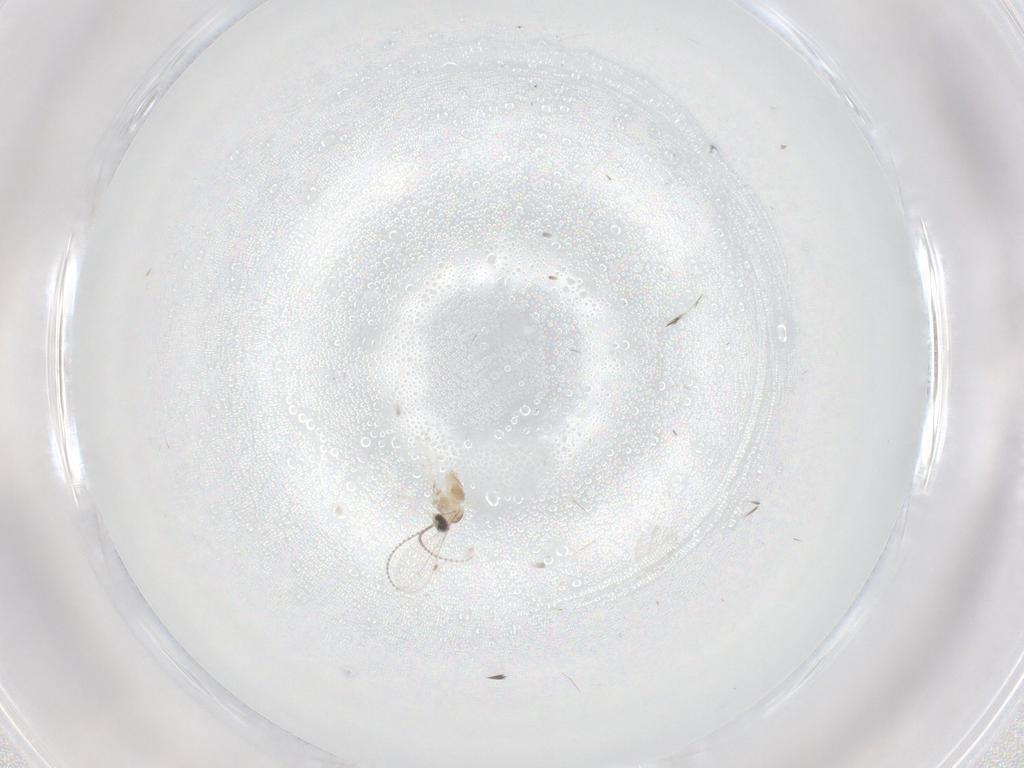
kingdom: Animalia
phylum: Arthropoda
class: Insecta
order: Diptera
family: Cecidomyiidae
